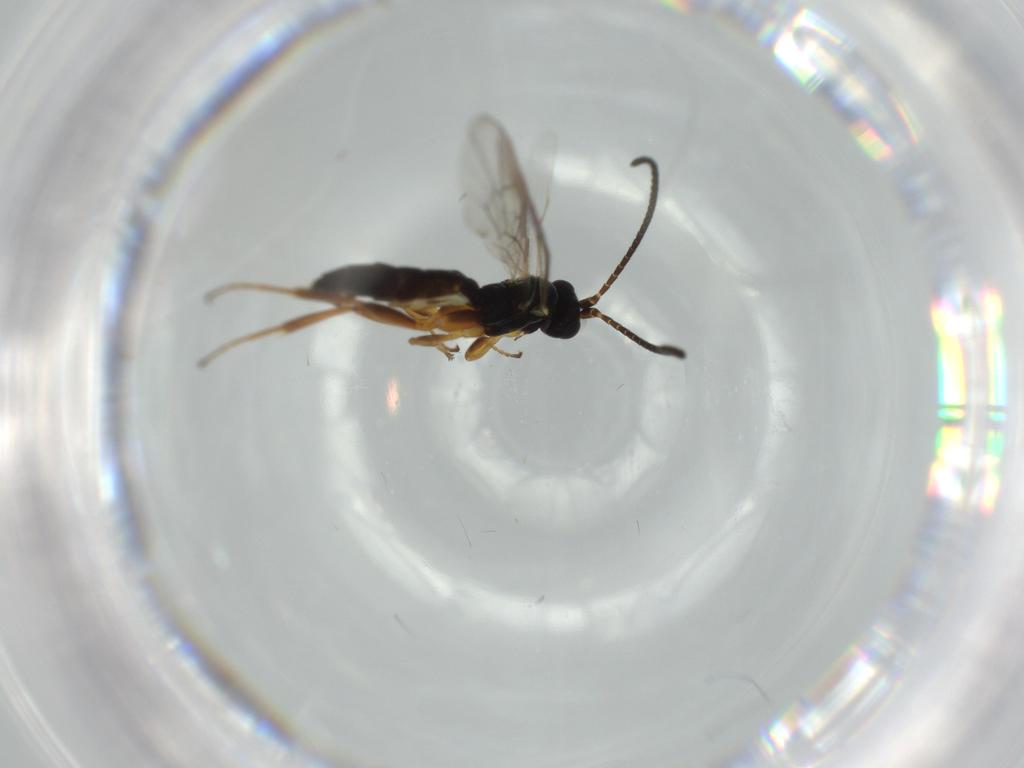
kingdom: Animalia
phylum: Arthropoda
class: Insecta
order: Hymenoptera
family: Ichneumonidae
